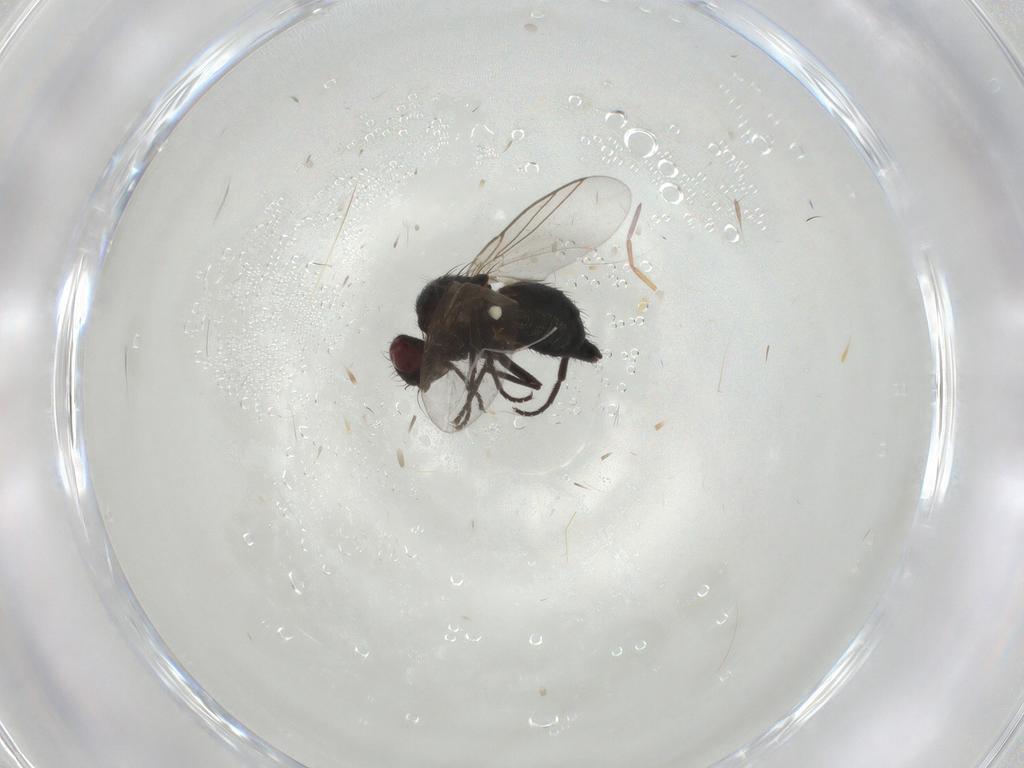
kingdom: Animalia
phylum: Arthropoda
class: Insecta
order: Diptera
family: Agromyzidae
